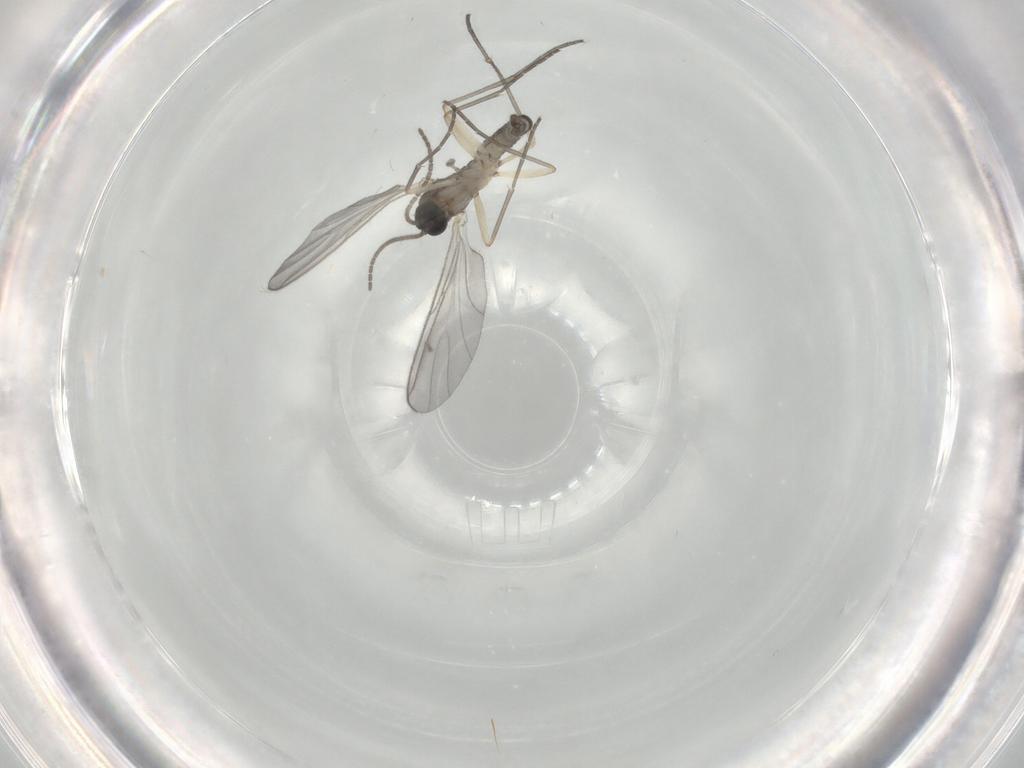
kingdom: Animalia
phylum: Arthropoda
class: Insecta
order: Diptera
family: Sciaridae
